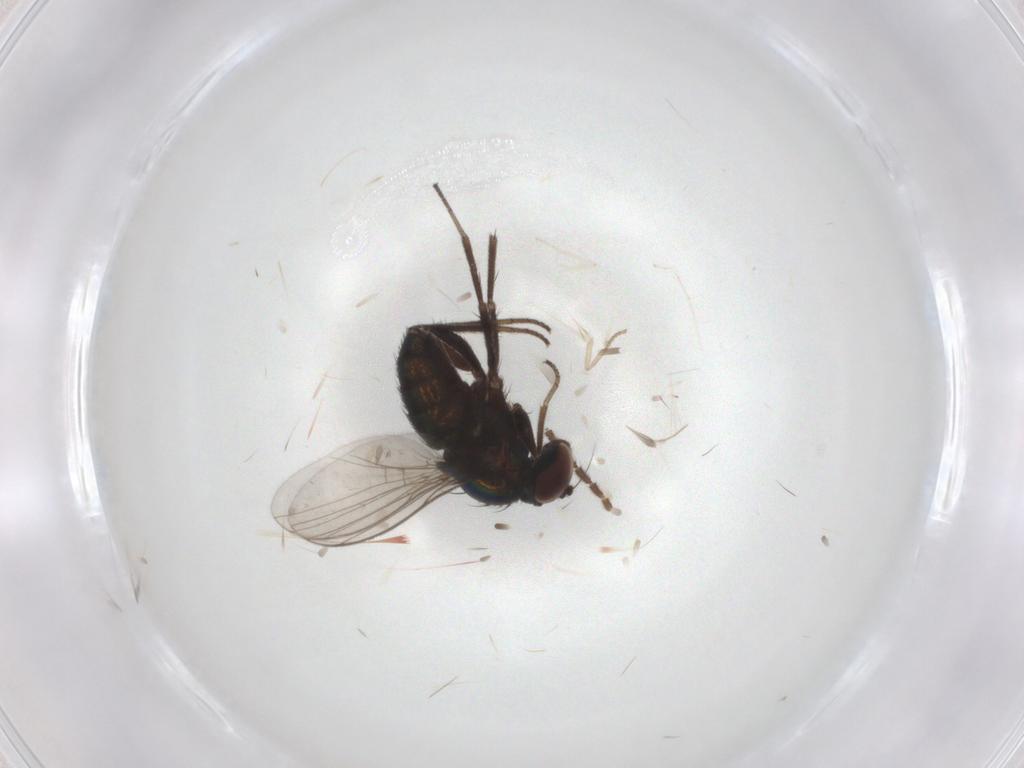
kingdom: Animalia
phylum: Arthropoda
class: Insecta
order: Diptera
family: Dolichopodidae
